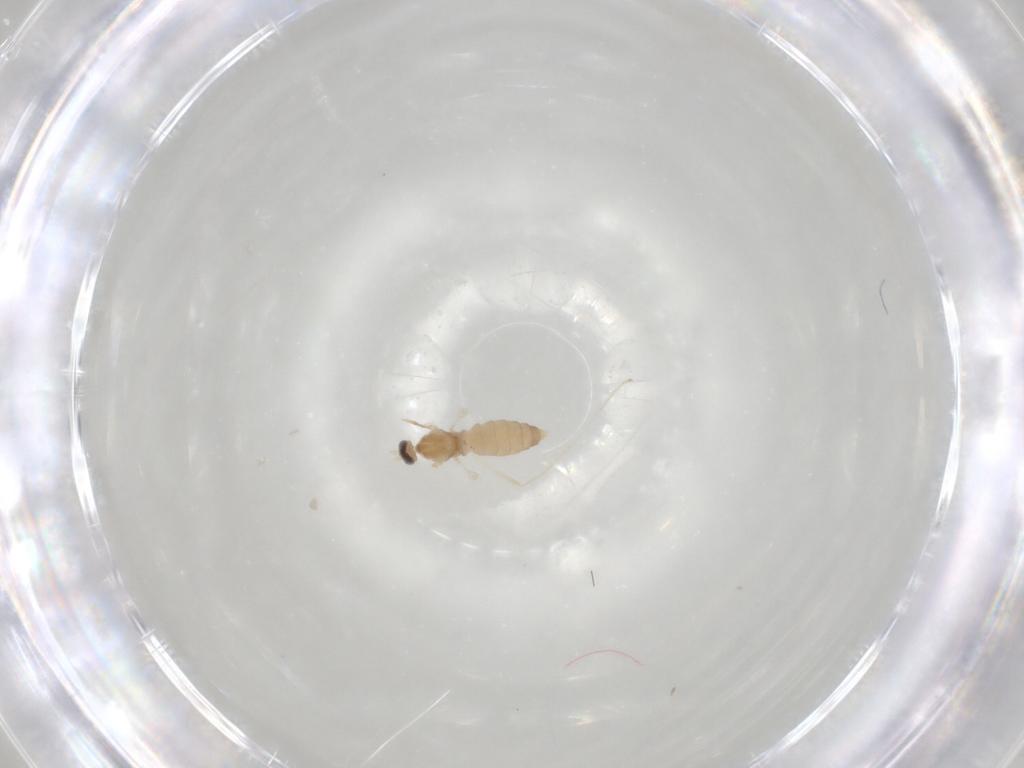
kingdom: Animalia
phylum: Arthropoda
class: Insecta
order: Diptera
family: Cecidomyiidae
